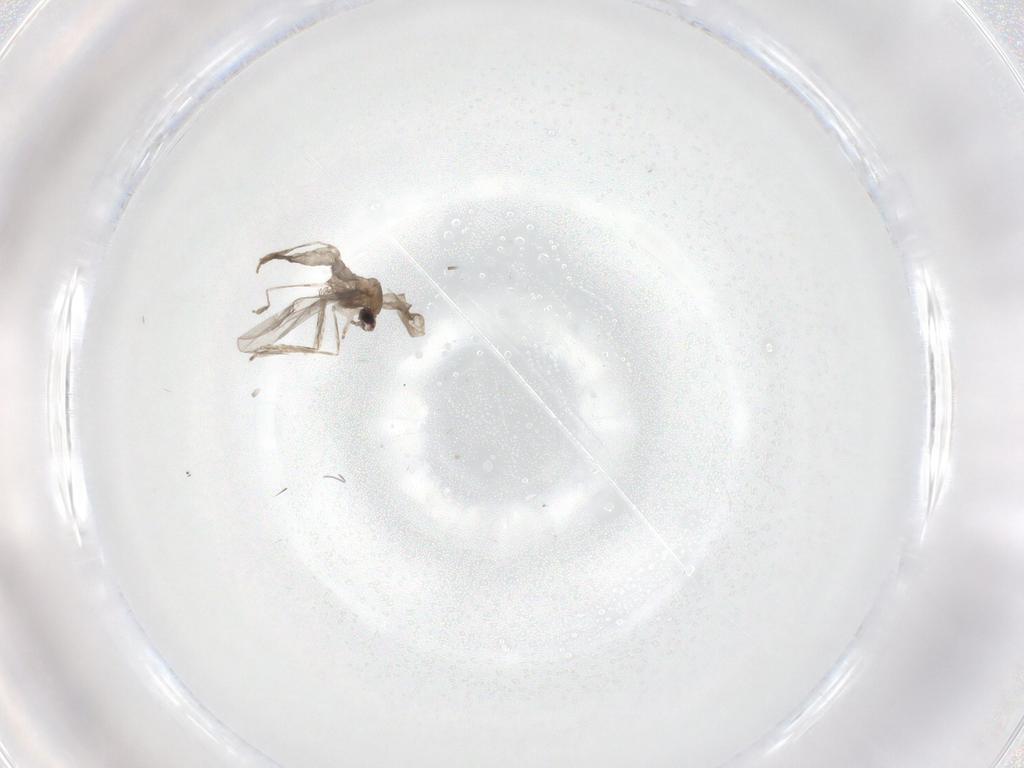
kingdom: Animalia
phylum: Arthropoda
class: Insecta
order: Diptera
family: Cecidomyiidae
